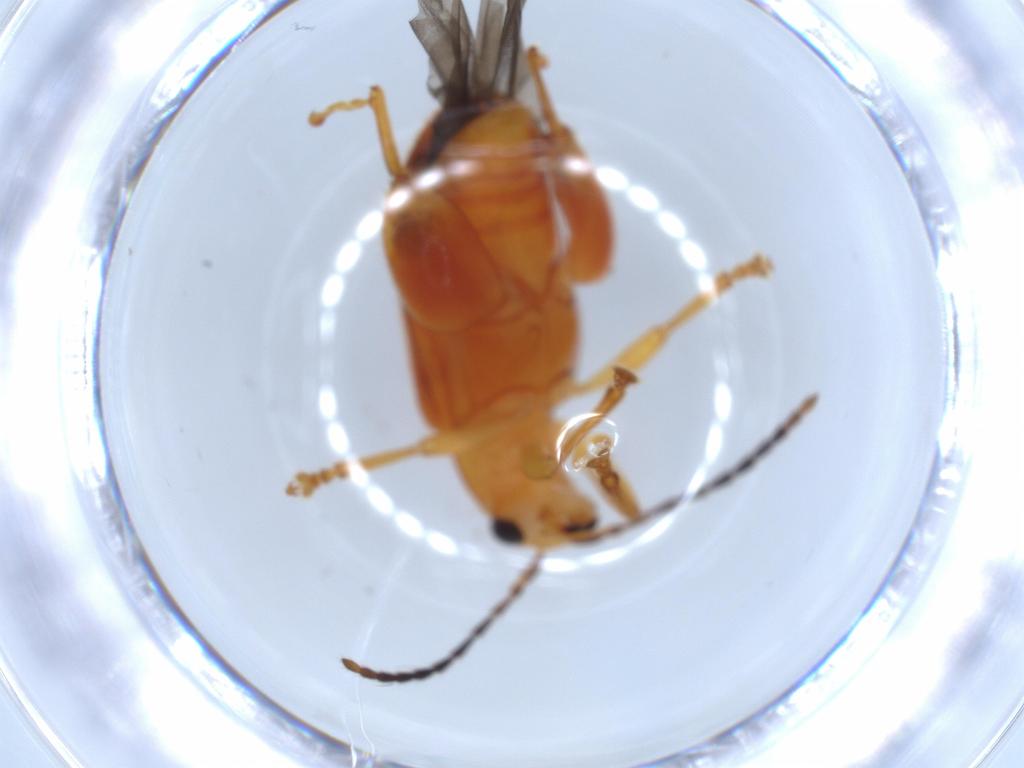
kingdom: Animalia
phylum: Arthropoda
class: Insecta
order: Coleoptera
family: Chrysomelidae
